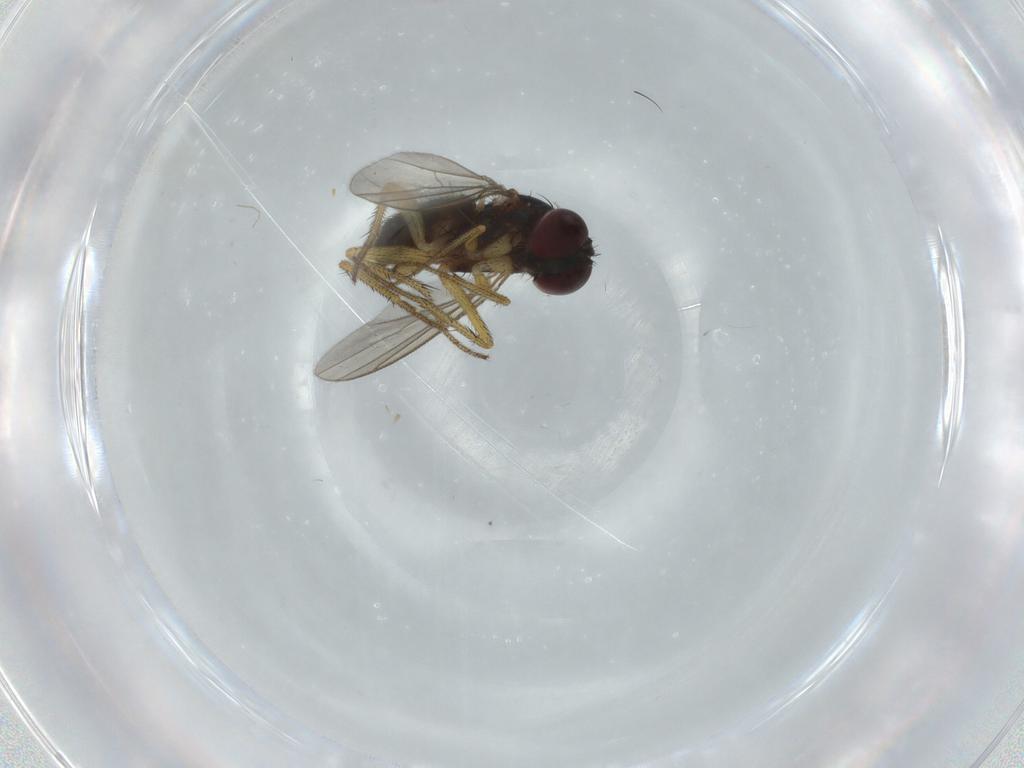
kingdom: Animalia
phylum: Arthropoda
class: Insecta
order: Diptera
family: Dolichopodidae
